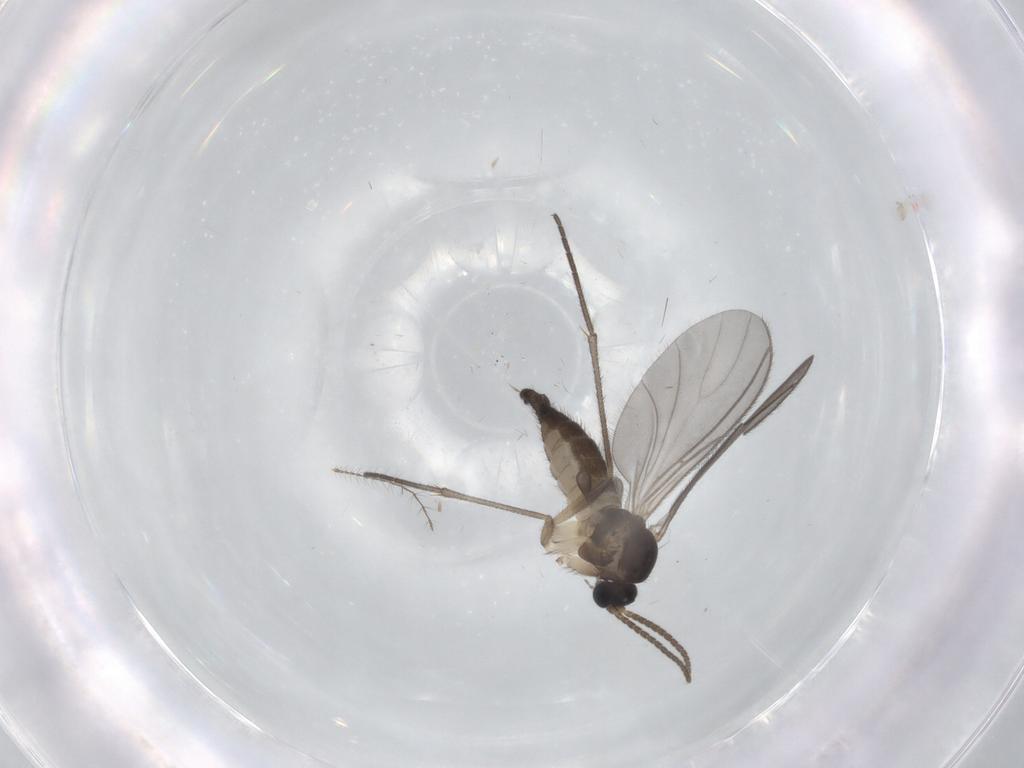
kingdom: Animalia
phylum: Arthropoda
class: Insecta
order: Diptera
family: Sciaridae
